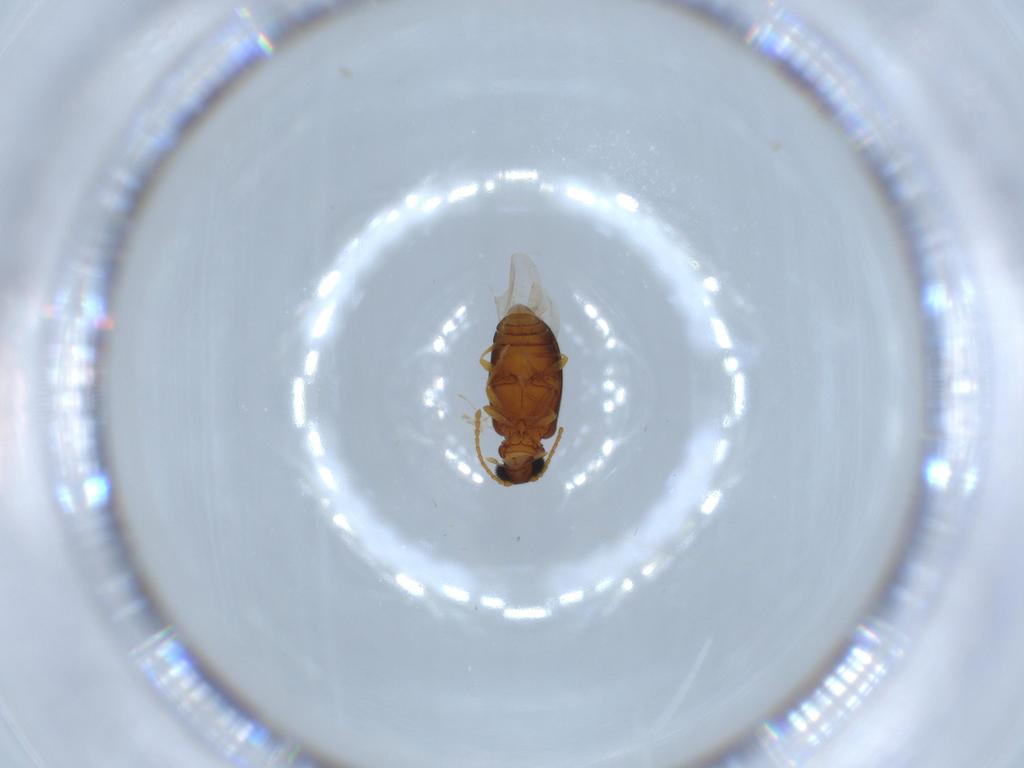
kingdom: Animalia
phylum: Arthropoda
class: Insecta
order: Coleoptera
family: Aderidae
